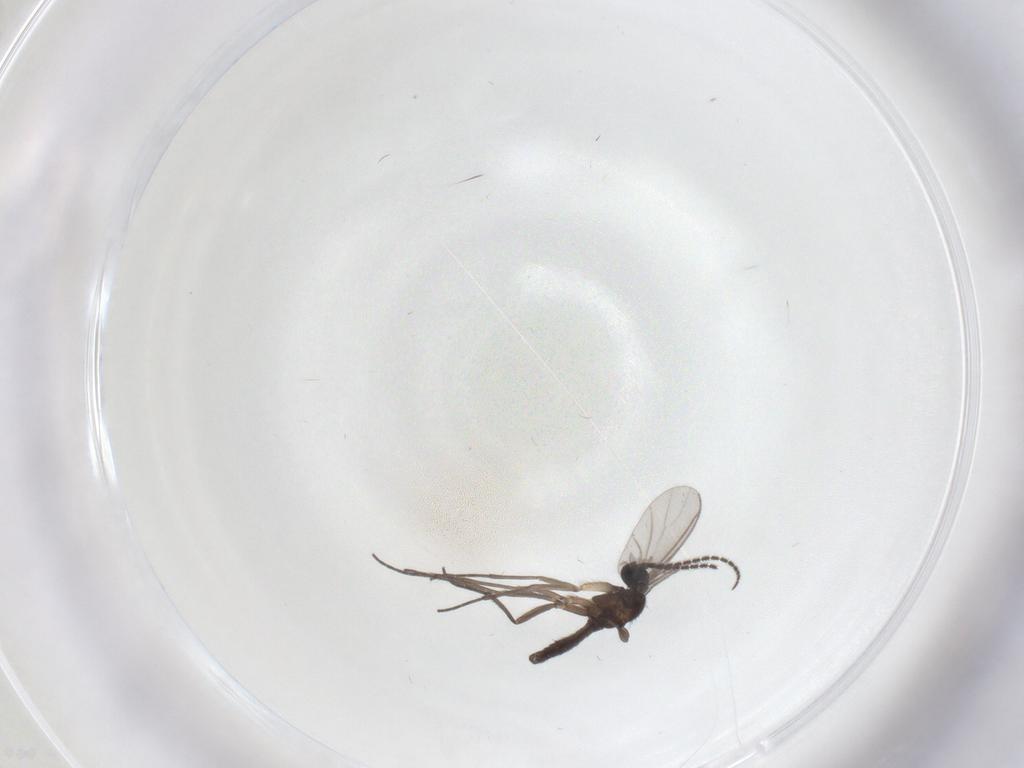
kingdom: Animalia
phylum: Arthropoda
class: Insecta
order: Diptera
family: Sciaridae
